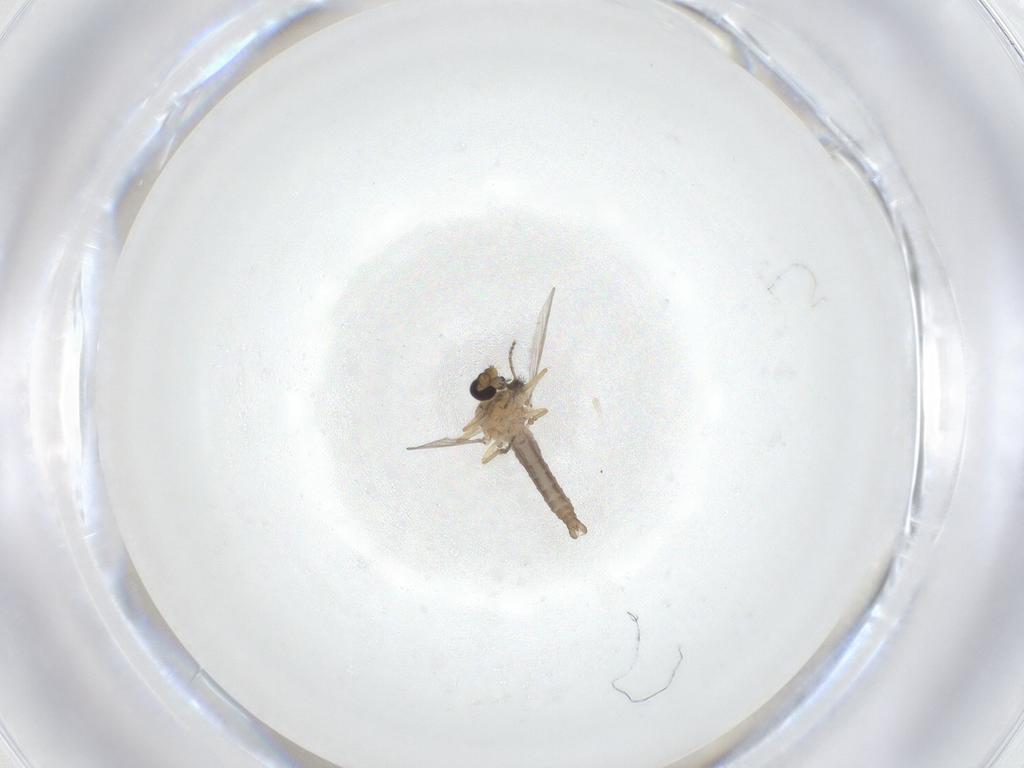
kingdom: Animalia
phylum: Arthropoda
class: Insecta
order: Diptera
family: Ceratopogonidae
